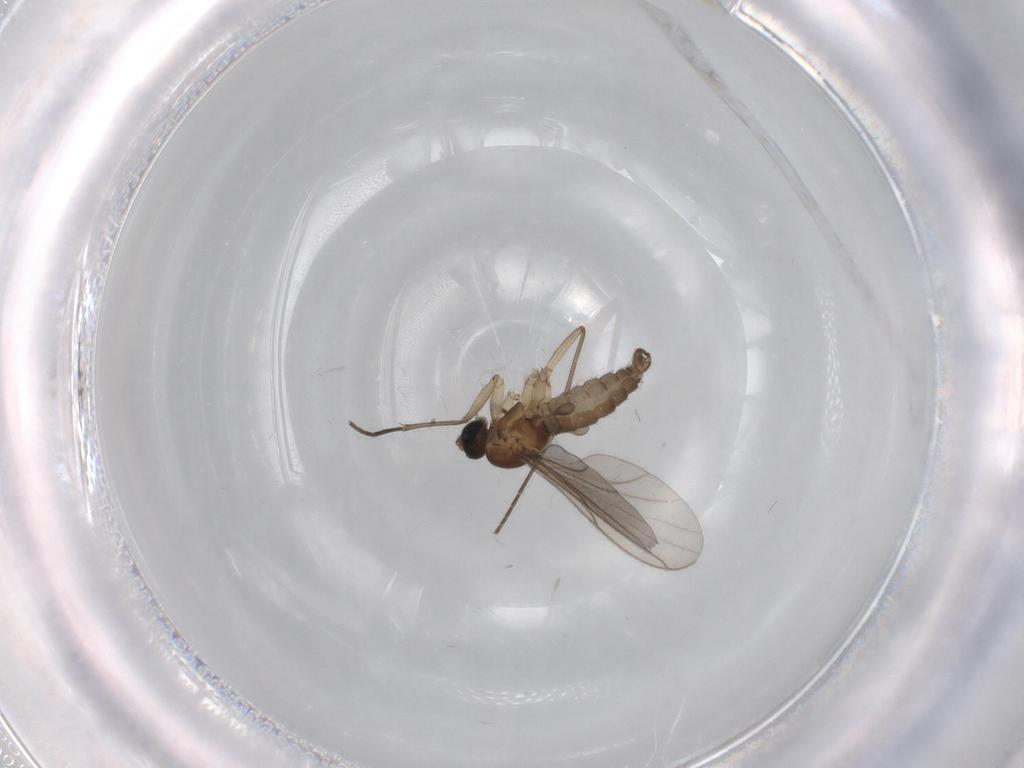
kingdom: Animalia
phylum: Arthropoda
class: Insecta
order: Diptera
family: Sciaridae
